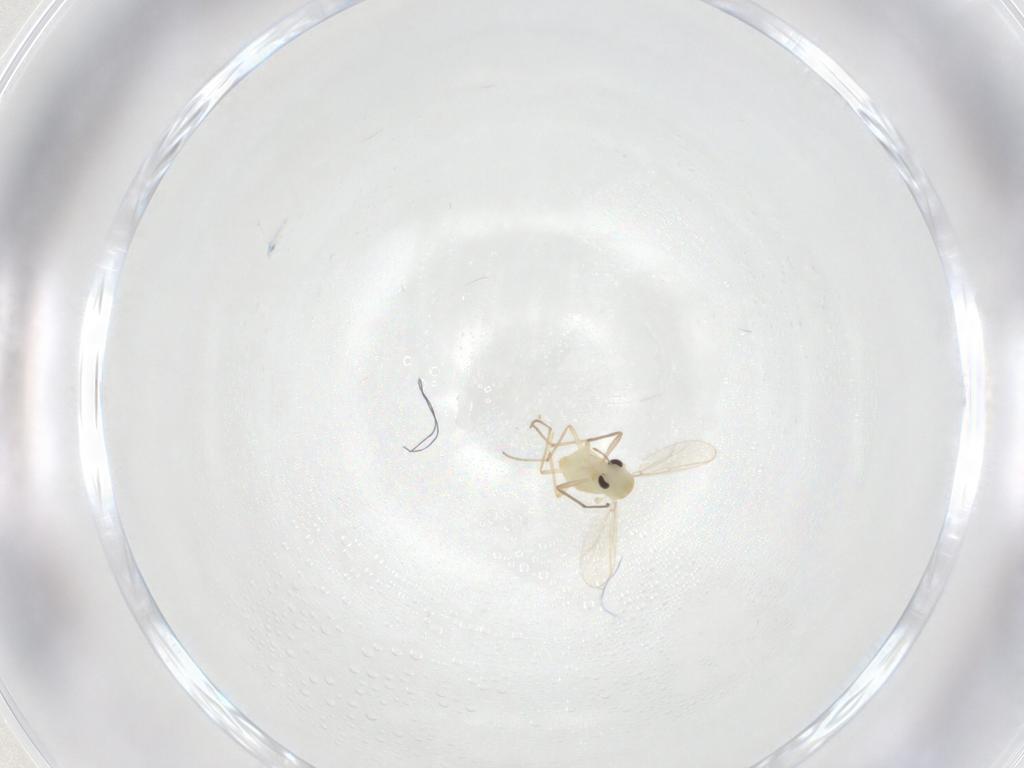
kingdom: Animalia
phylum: Arthropoda
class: Insecta
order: Diptera
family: Chironomidae
